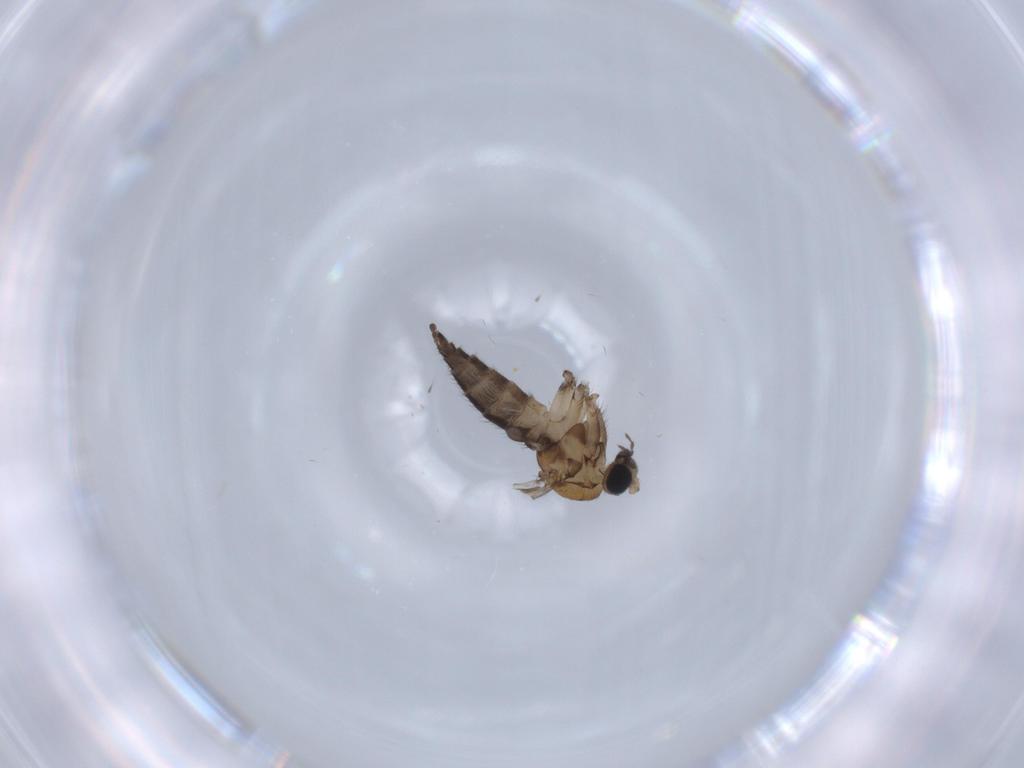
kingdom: Animalia
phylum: Arthropoda
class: Insecta
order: Diptera
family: Sciaridae
